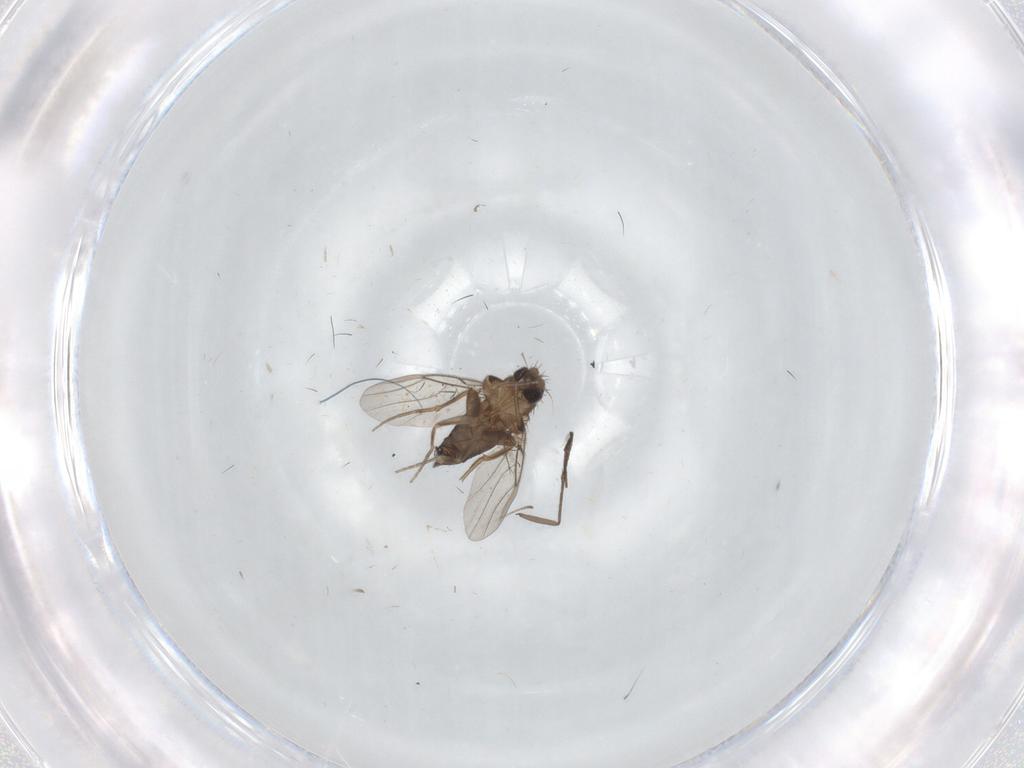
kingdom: Animalia
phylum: Arthropoda
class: Insecta
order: Diptera
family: Phoridae
